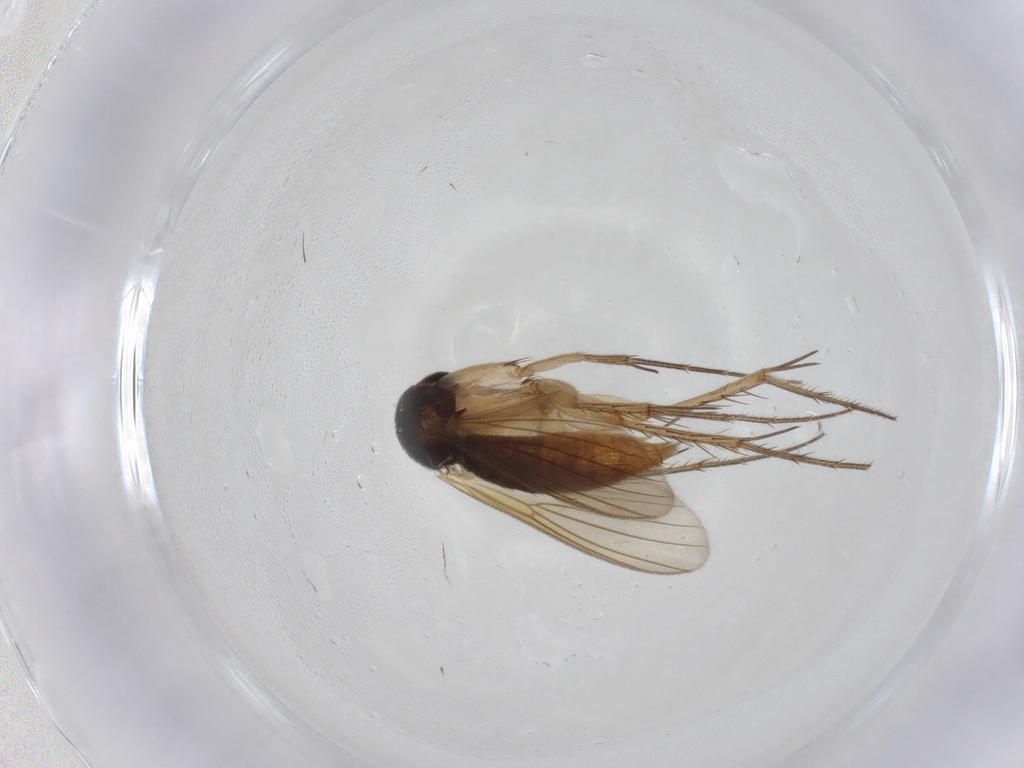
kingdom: Animalia
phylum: Arthropoda
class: Insecta
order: Diptera
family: Mycetophilidae
